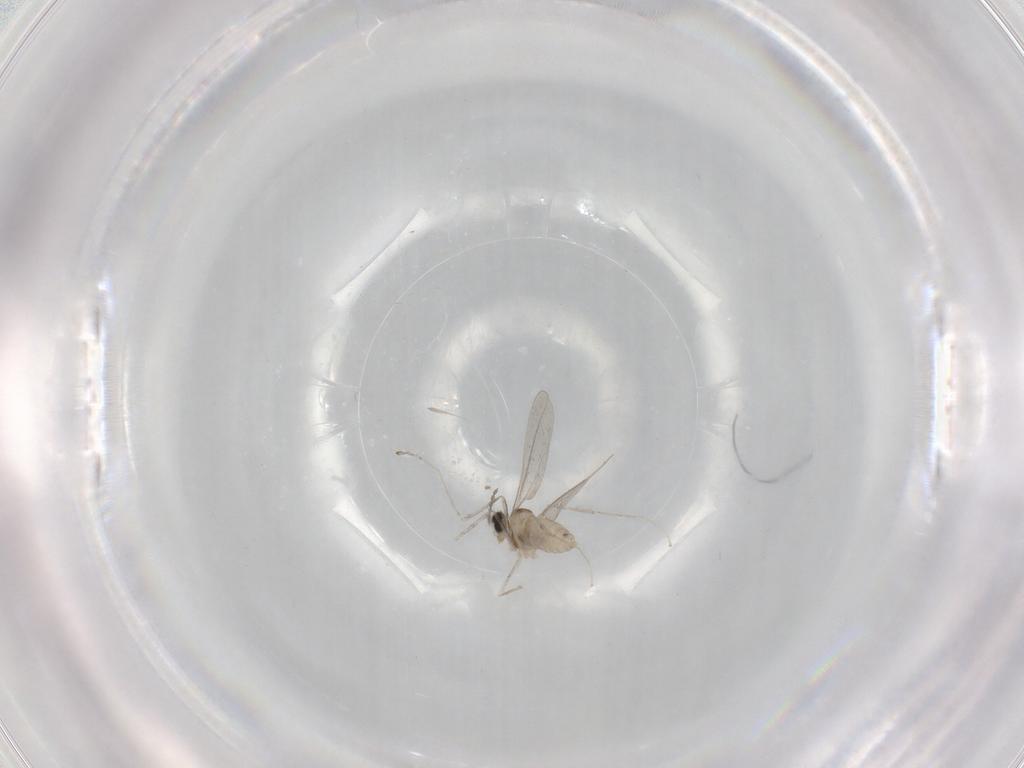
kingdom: Animalia
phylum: Arthropoda
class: Insecta
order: Diptera
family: Cecidomyiidae
